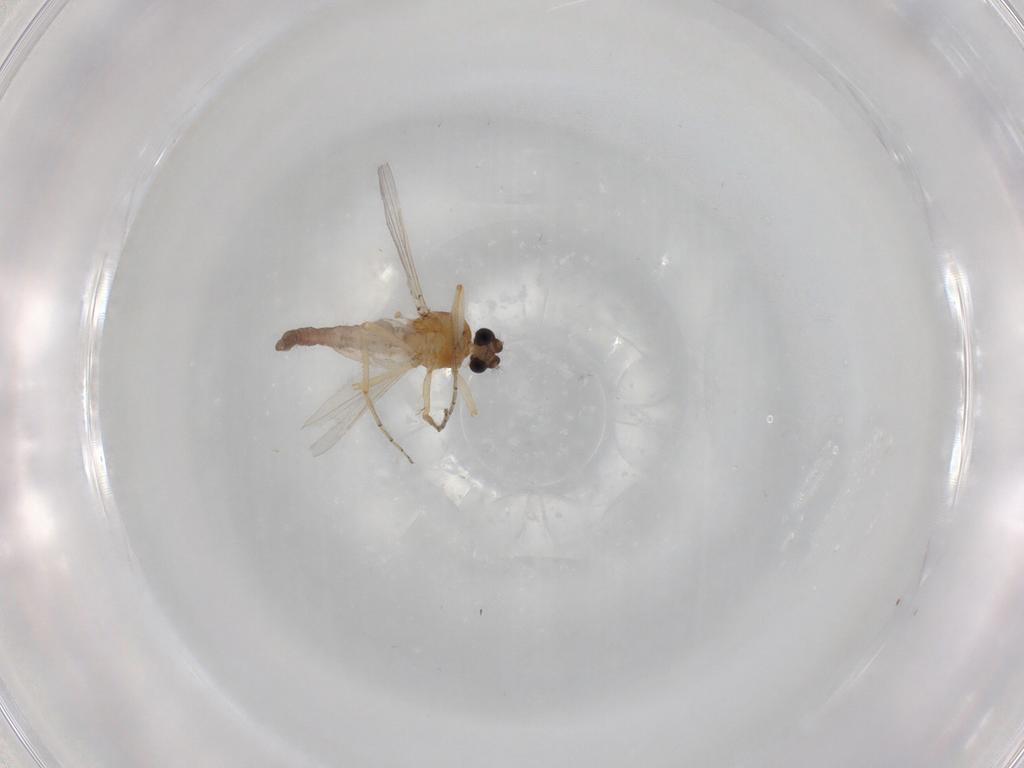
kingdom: Animalia
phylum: Arthropoda
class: Insecta
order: Diptera
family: Ceratopogonidae
